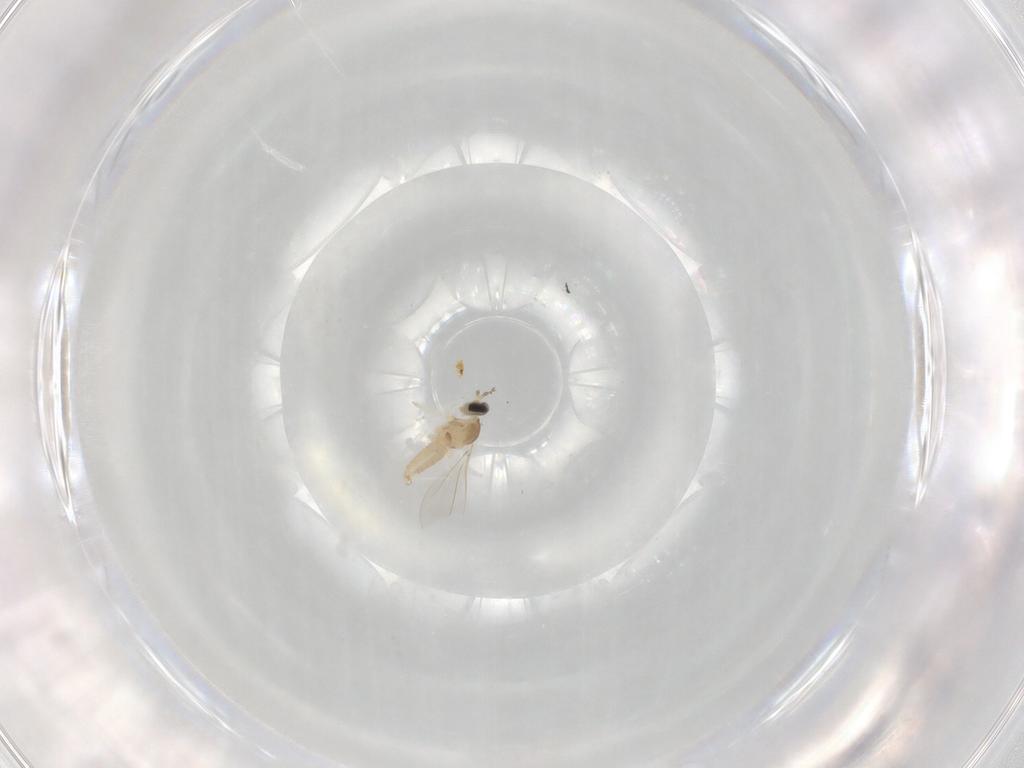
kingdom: Animalia
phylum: Arthropoda
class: Insecta
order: Diptera
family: Cecidomyiidae
